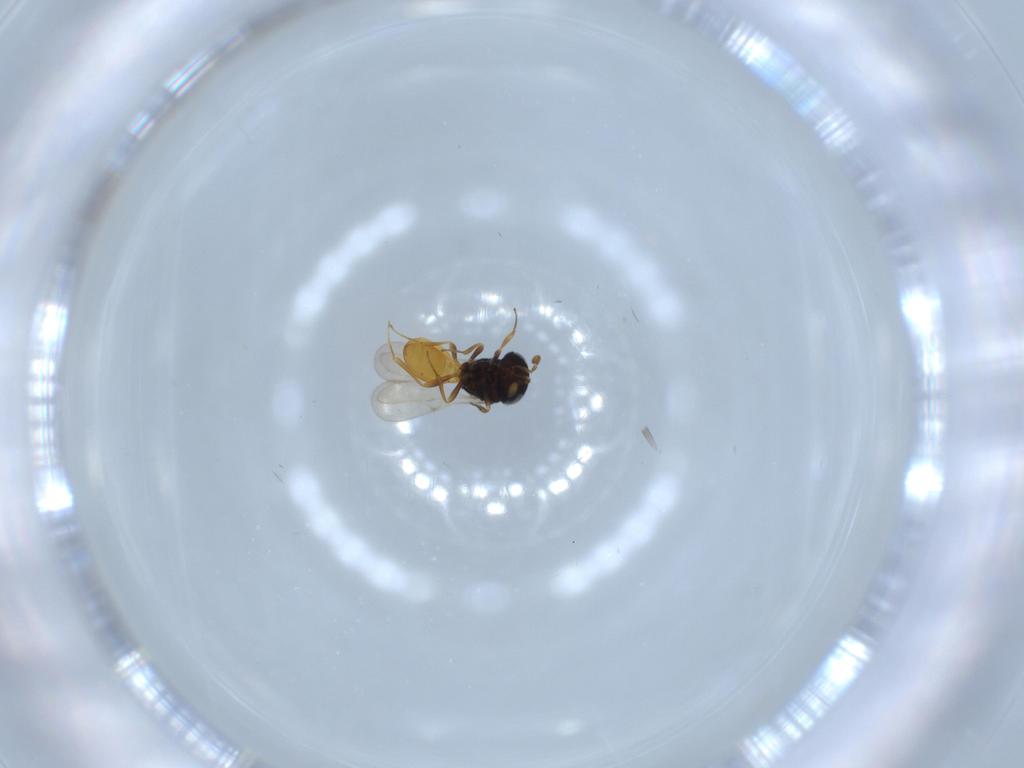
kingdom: Animalia
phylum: Arthropoda
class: Insecta
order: Hymenoptera
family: Scelionidae
